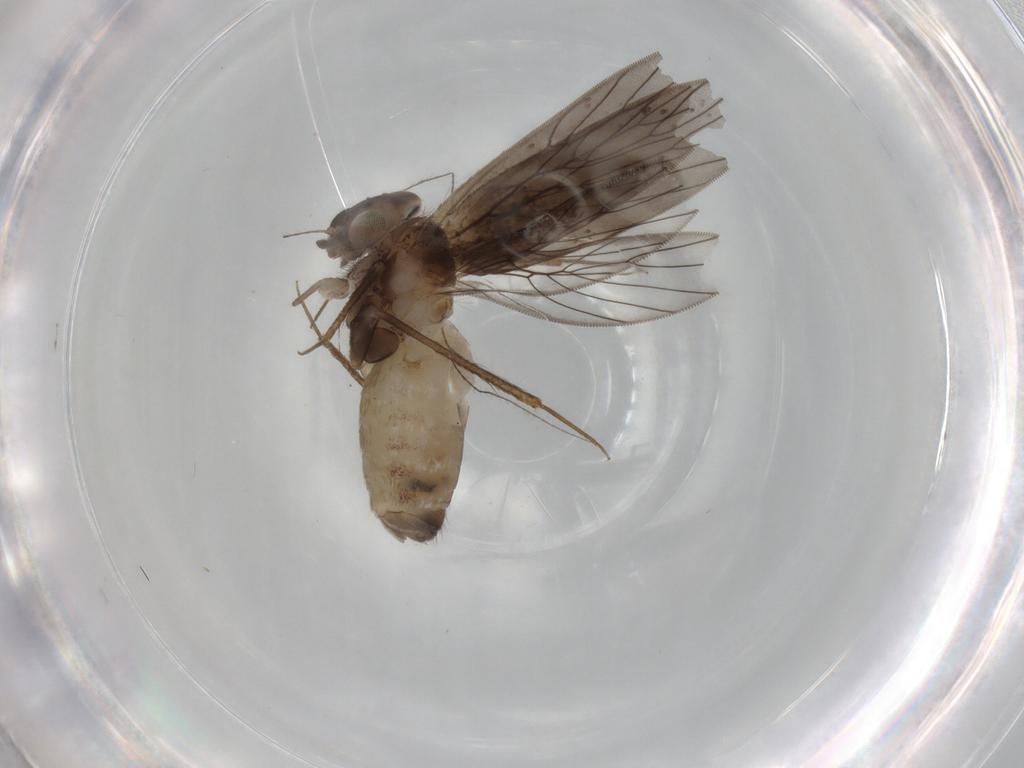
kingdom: Animalia
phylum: Arthropoda
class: Insecta
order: Psocodea
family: Lepidopsocidae
